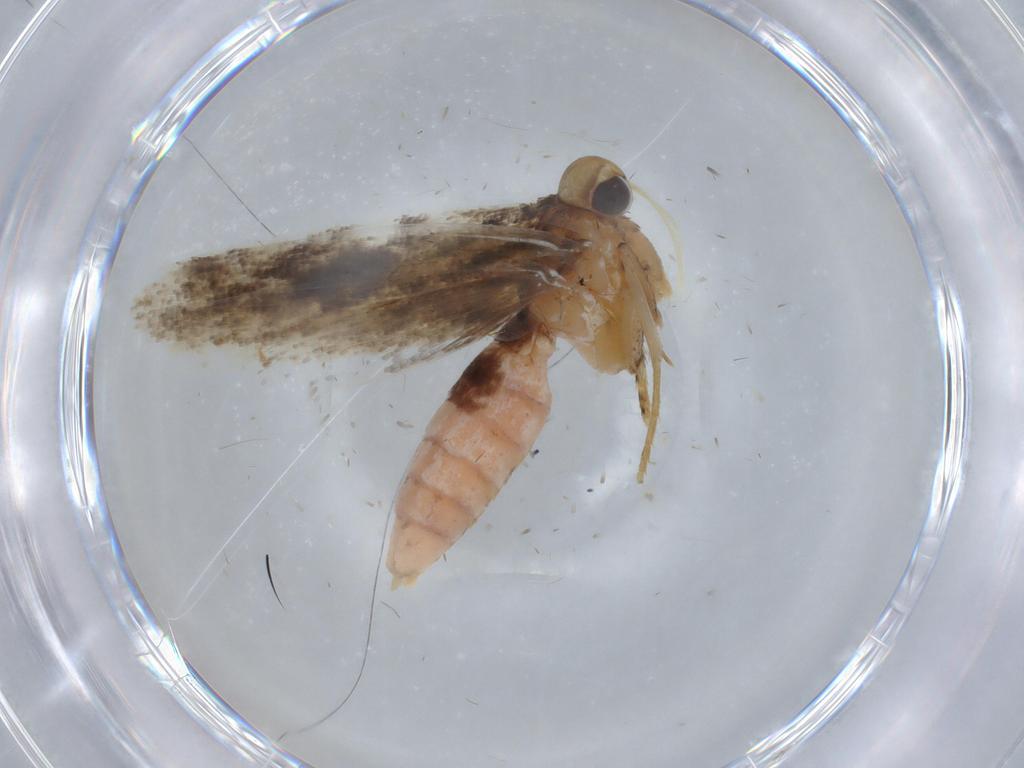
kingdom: Animalia
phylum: Arthropoda
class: Insecta
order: Lepidoptera
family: Gelechiidae
